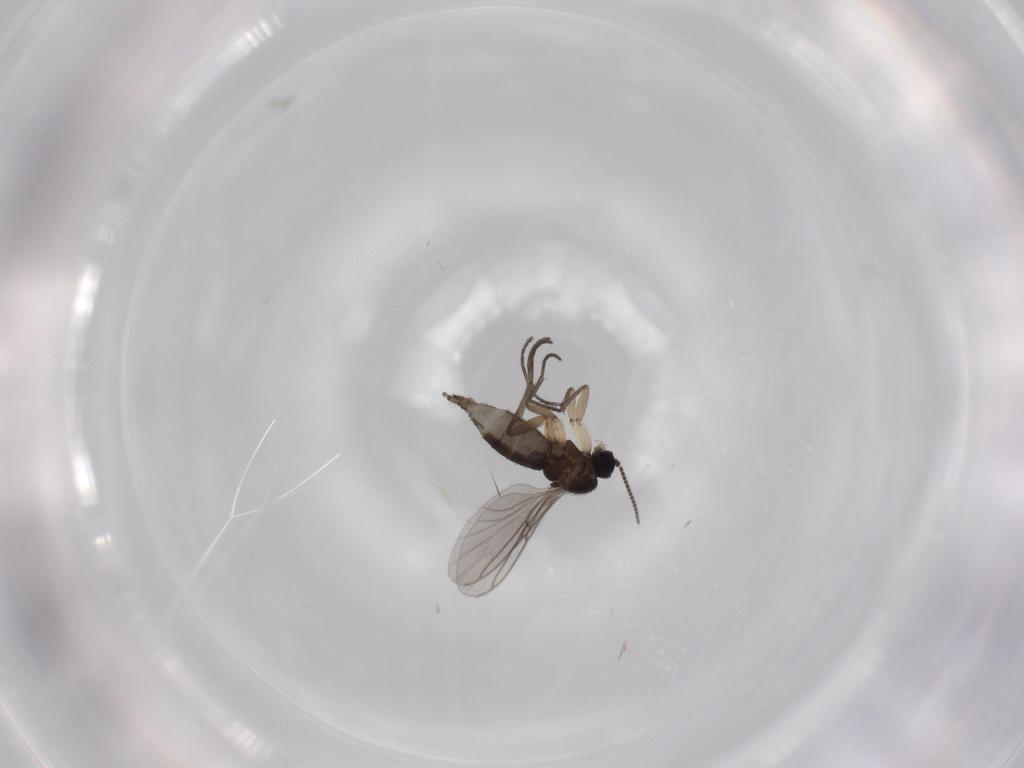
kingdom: Animalia
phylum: Arthropoda
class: Insecta
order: Diptera
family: Sciaridae
